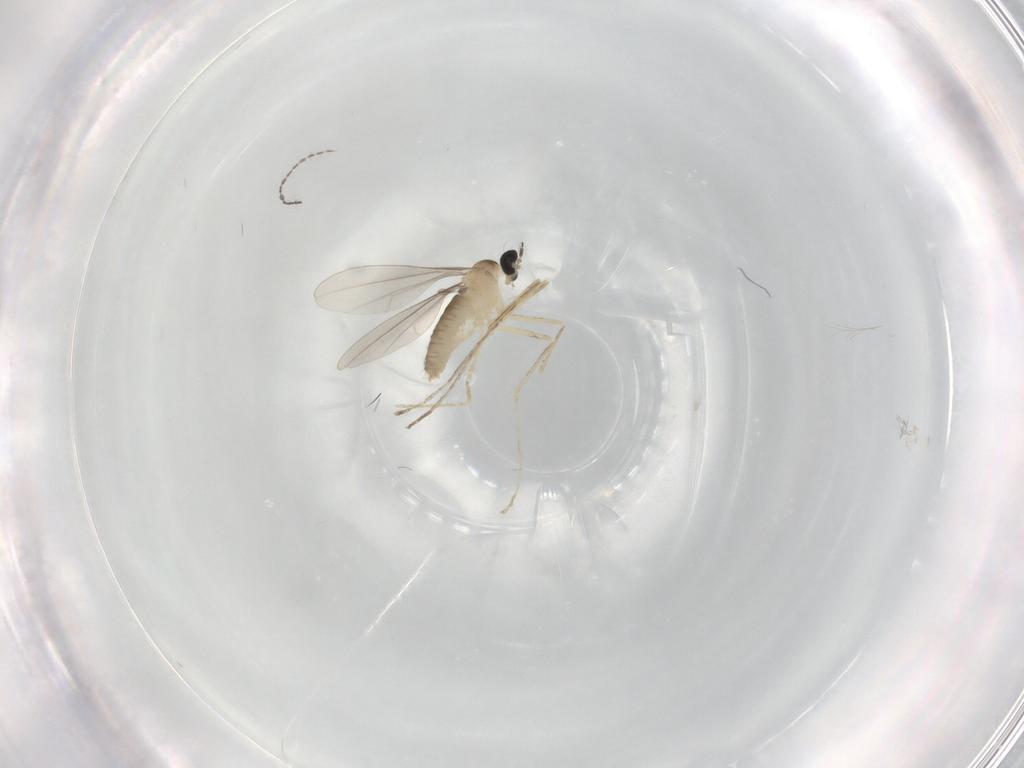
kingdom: Animalia
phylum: Arthropoda
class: Insecta
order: Diptera
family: Cecidomyiidae
